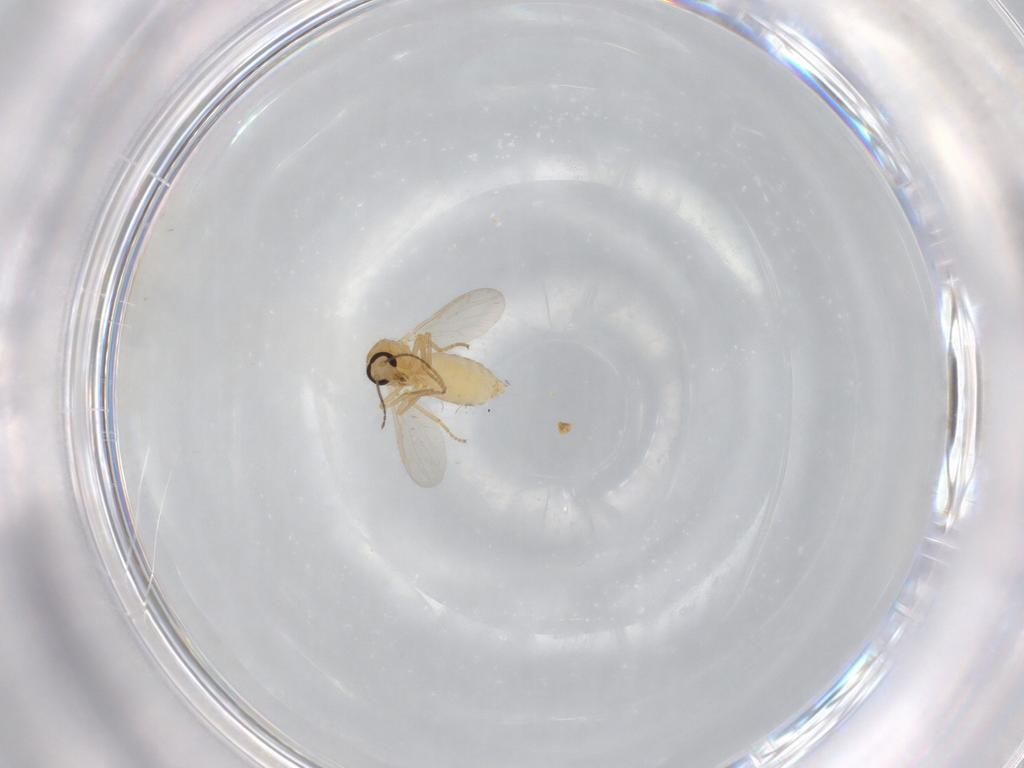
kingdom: Animalia
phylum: Arthropoda
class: Insecta
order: Diptera
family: Ceratopogonidae
